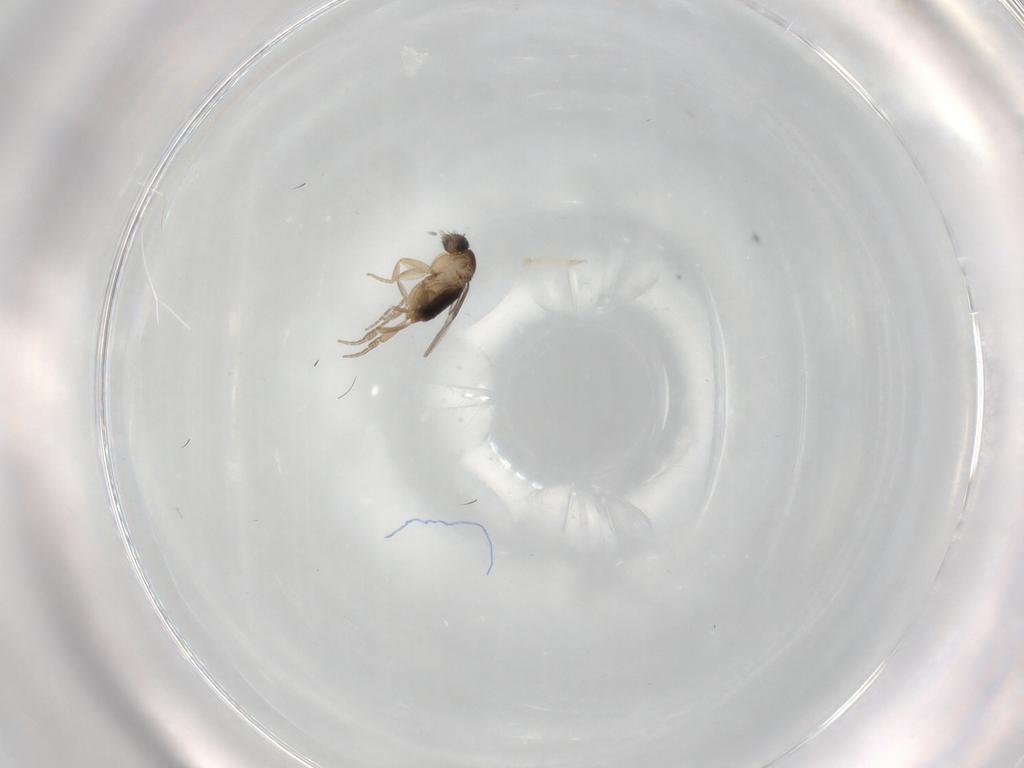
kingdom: Animalia
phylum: Arthropoda
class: Insecta
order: Diptera
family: Phoridae
